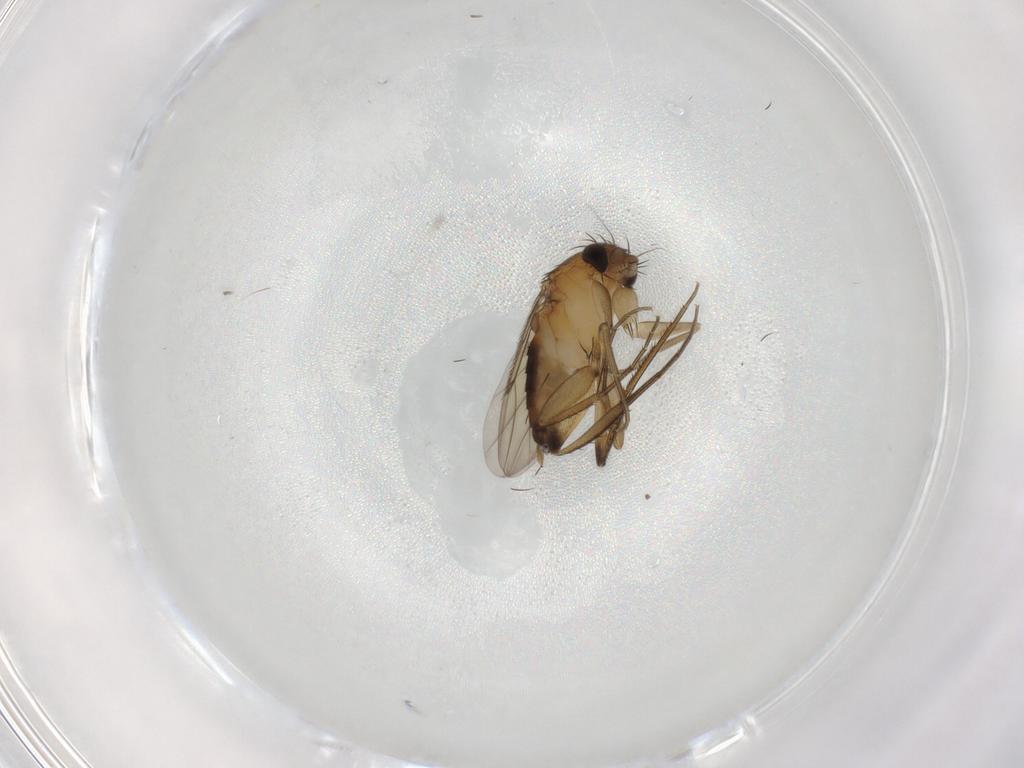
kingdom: Animalia
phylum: Arthropoda
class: Insecta
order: Diptera
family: Phoridae
